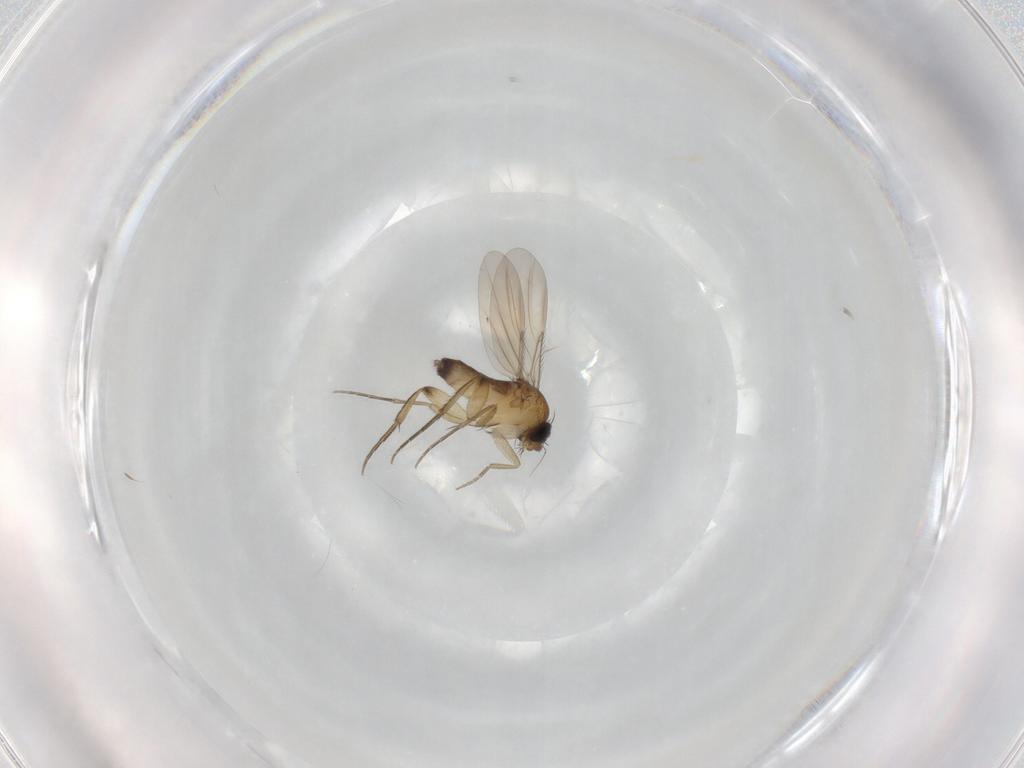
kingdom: Animalia
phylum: Arthropoda
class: Insecta
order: Diptera
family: Phoridae
